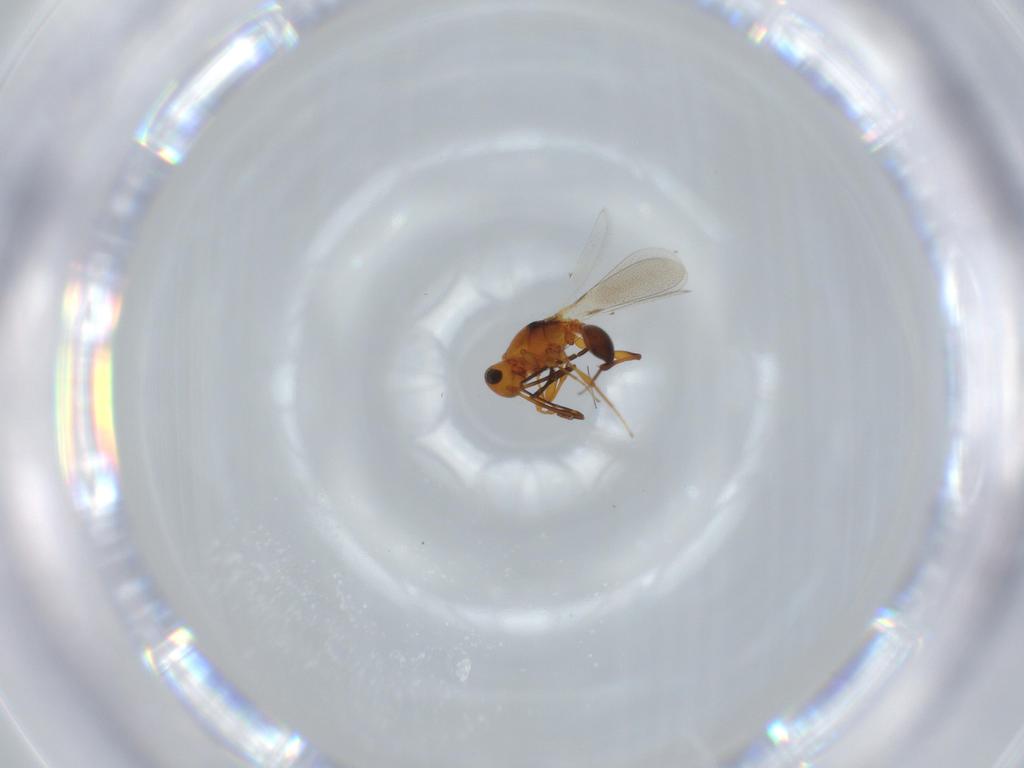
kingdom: Animalia
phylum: Arthropoda
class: Insecta
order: Hymenoptera
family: Platygastridae
